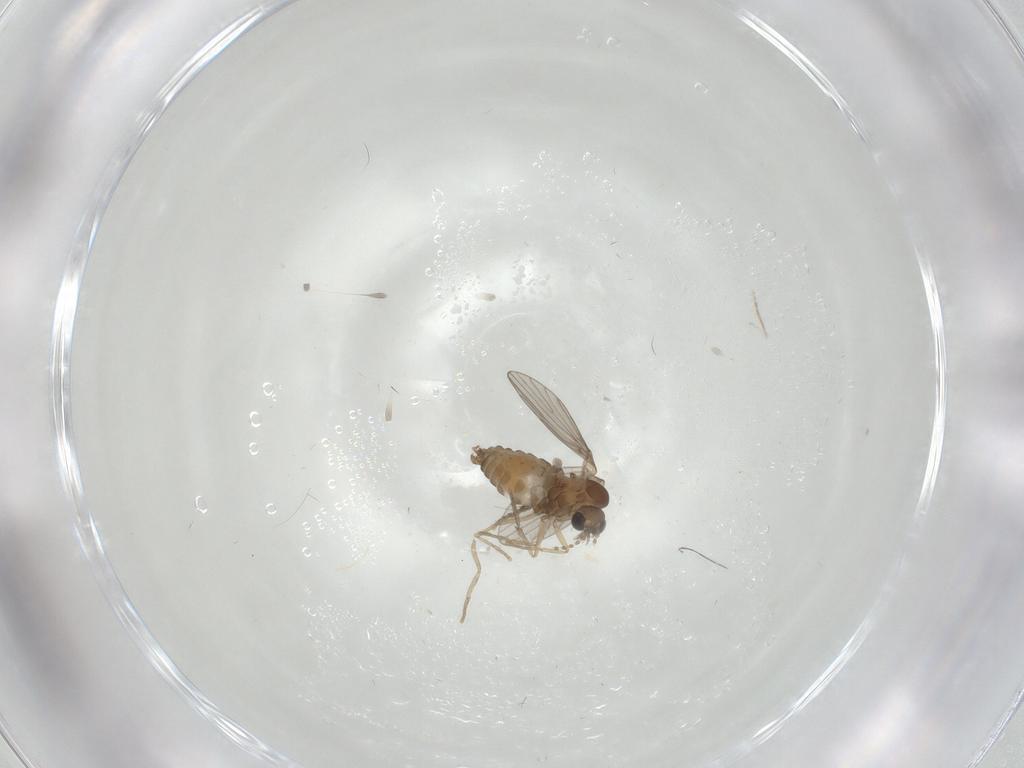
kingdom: Animalia
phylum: Arthropoda
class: Insecta
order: Diptera
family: Ceratopogonidae
